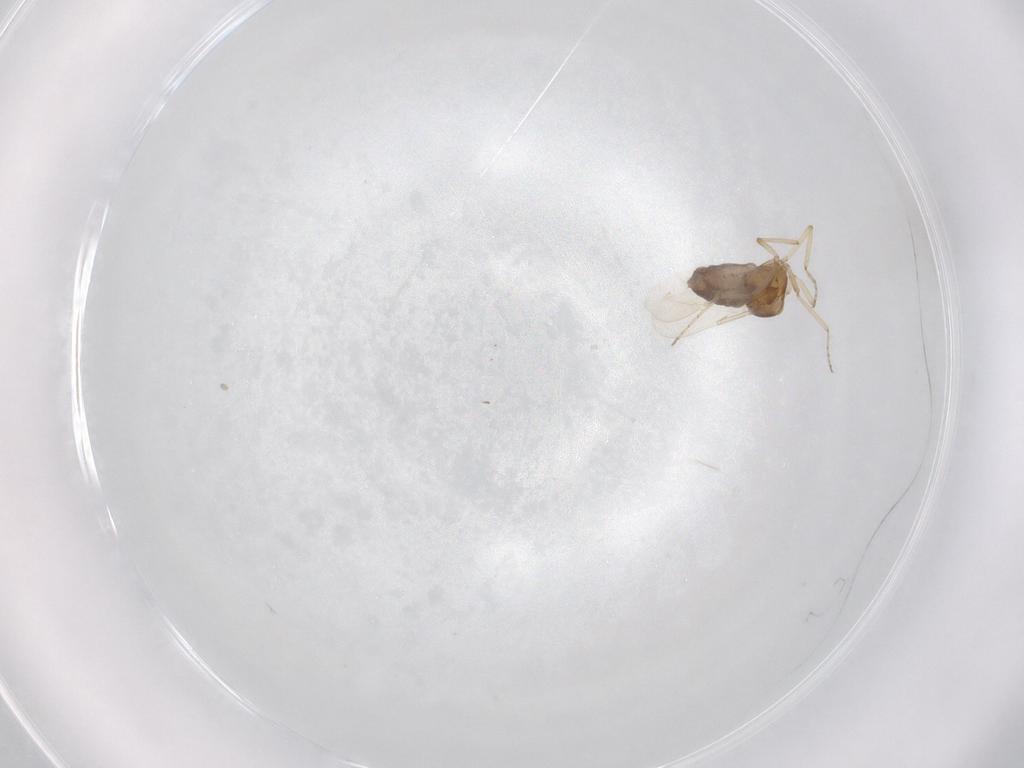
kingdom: Animalia
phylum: Arthropoda
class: Insecta
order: Diptera
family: Ceratopogonidae
